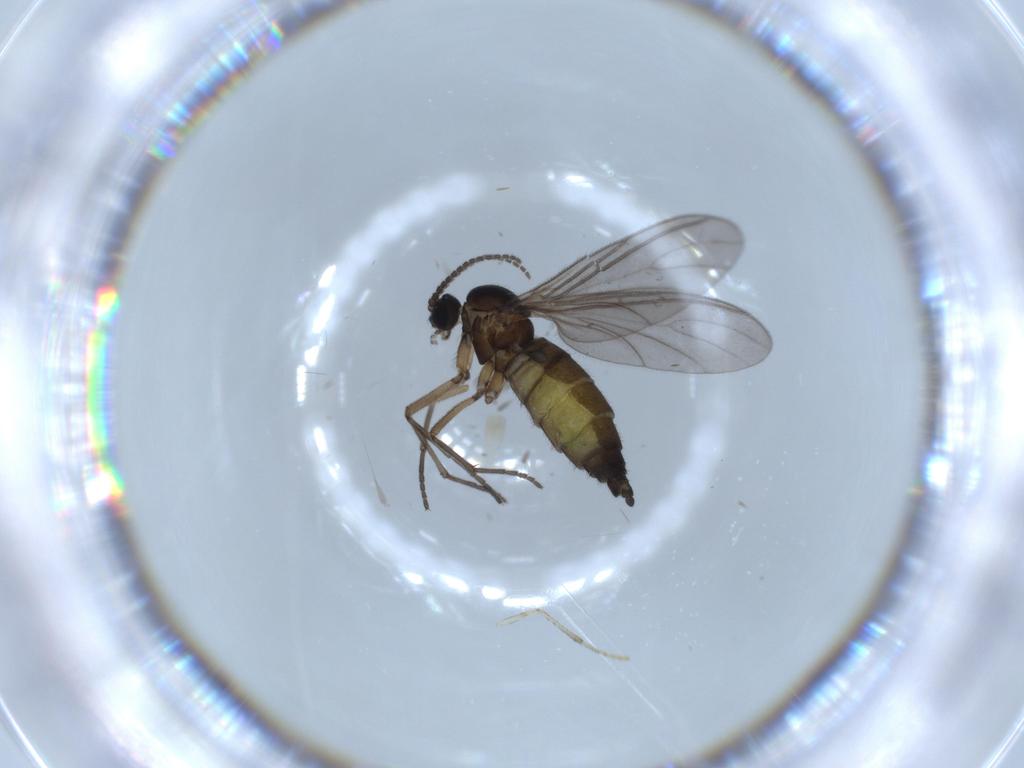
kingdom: Animalia
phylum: Arthropoda
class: Insecta
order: Diptera
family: Sciaridae
